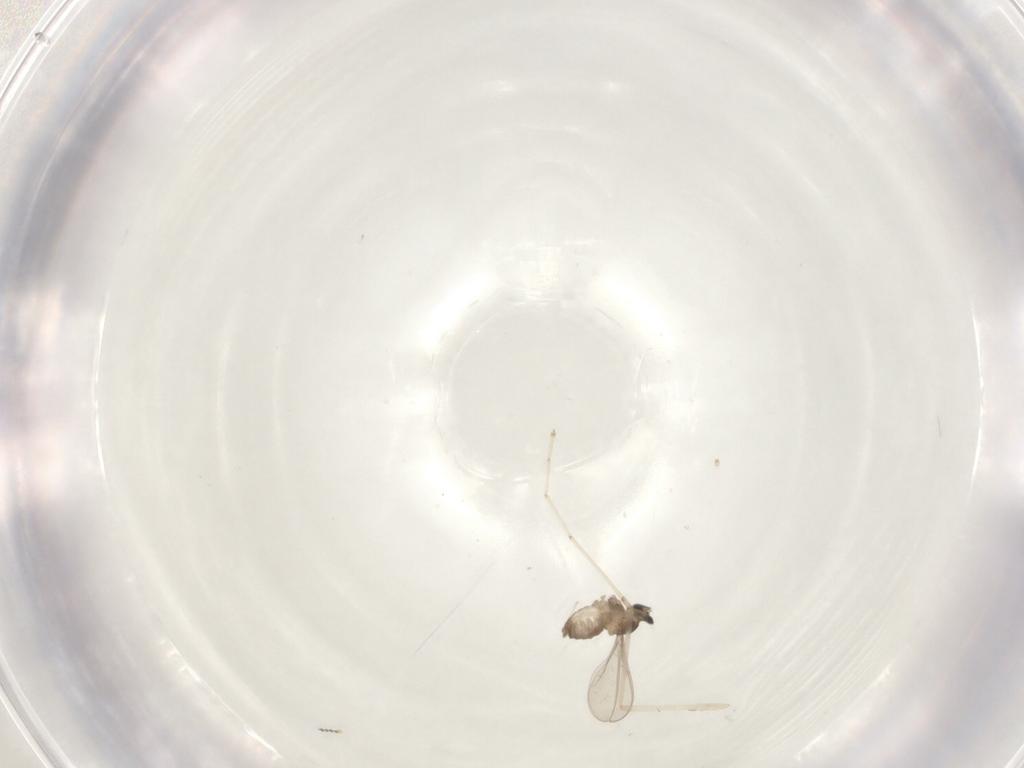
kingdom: Animalia
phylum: Arthropoda
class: Insecta
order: Diptera
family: Cecidomyiidae
